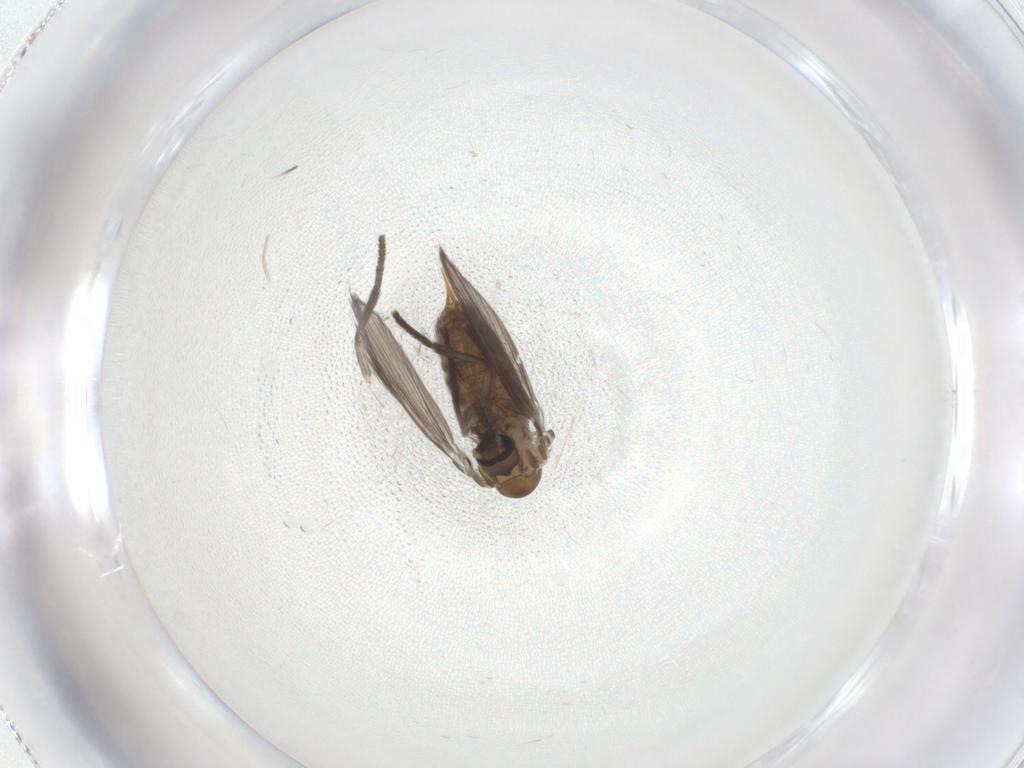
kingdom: Animalia
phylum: Arthropoda
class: Insecta
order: Diptera
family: Psychodidae
